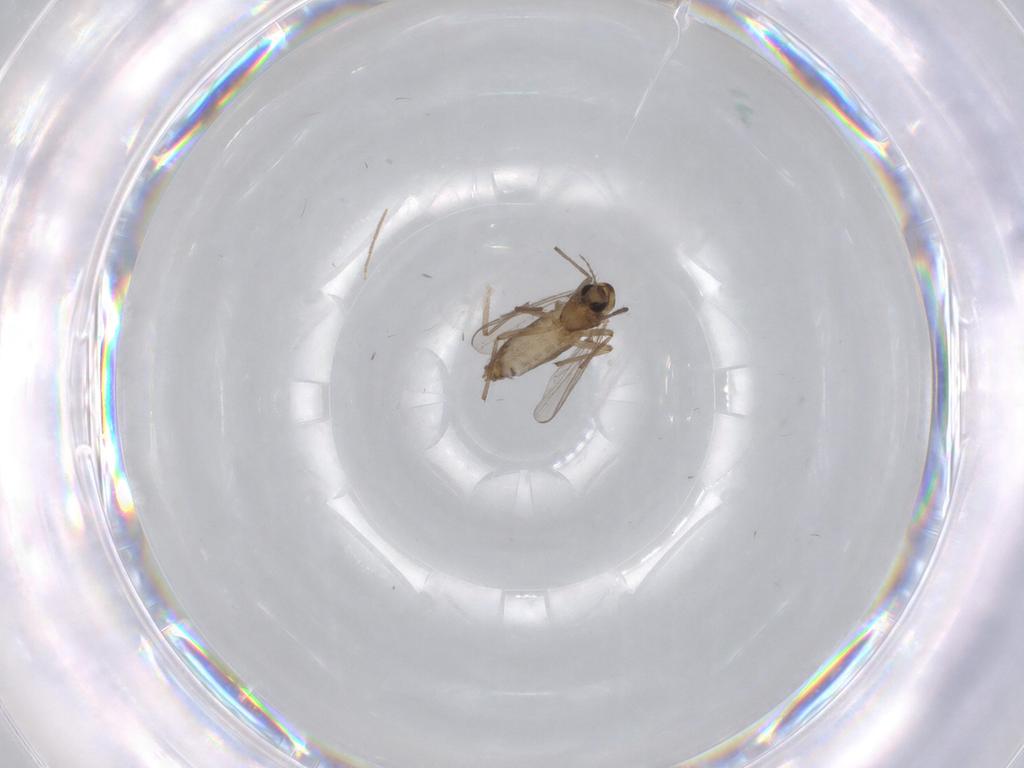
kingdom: Animalia
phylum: Arthropoda
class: Insecta
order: Diptera
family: Chironomidae
